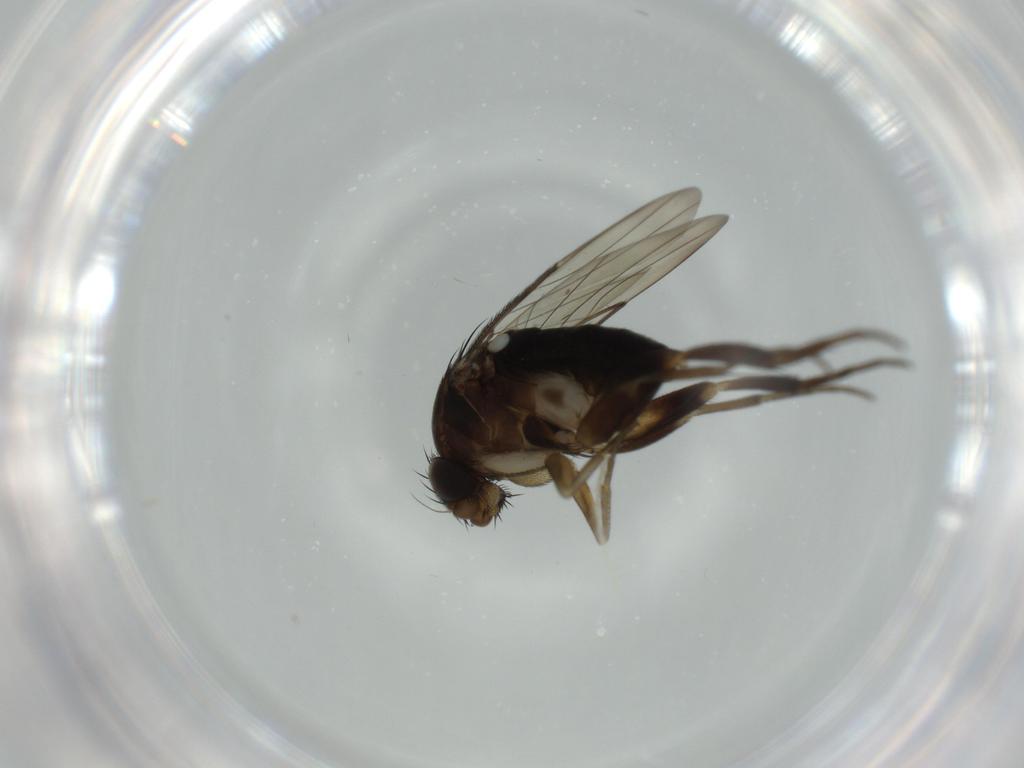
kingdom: Animalia
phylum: Arthropoda
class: Insecta
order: Diptera
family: Phoridae
